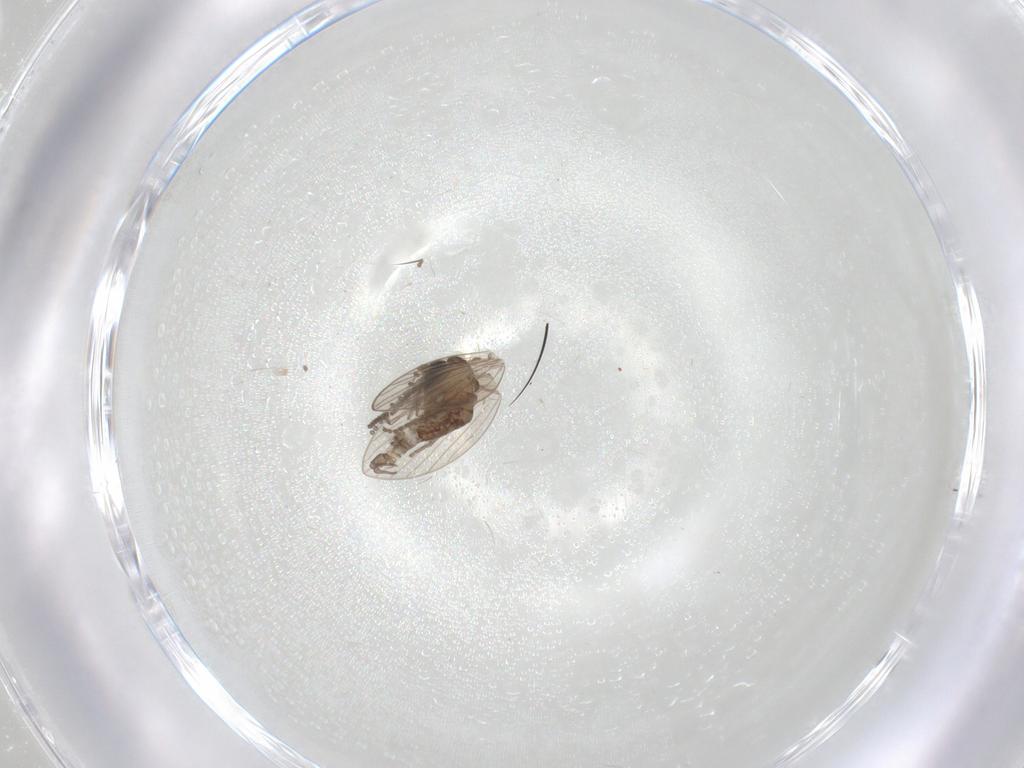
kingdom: Animalia
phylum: Arthropoda
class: Insecta
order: Diptera
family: Psychodidae
